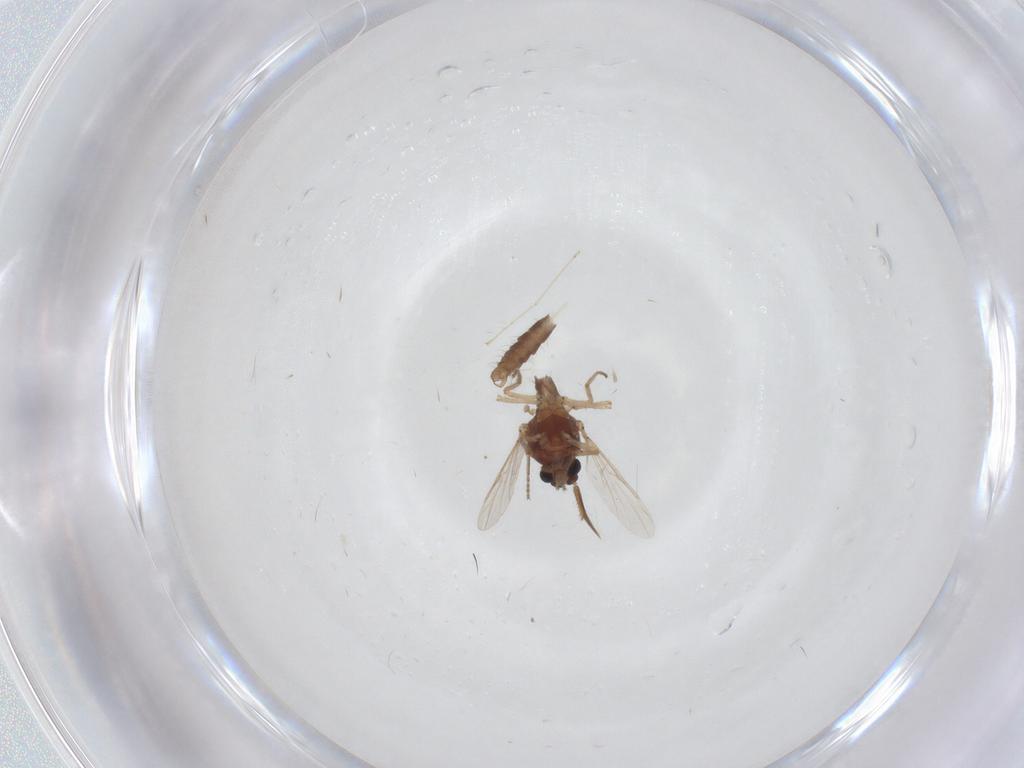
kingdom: Animalia
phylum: Arthropoda
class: Insecta
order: Diptera
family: Ceratopogonidae
